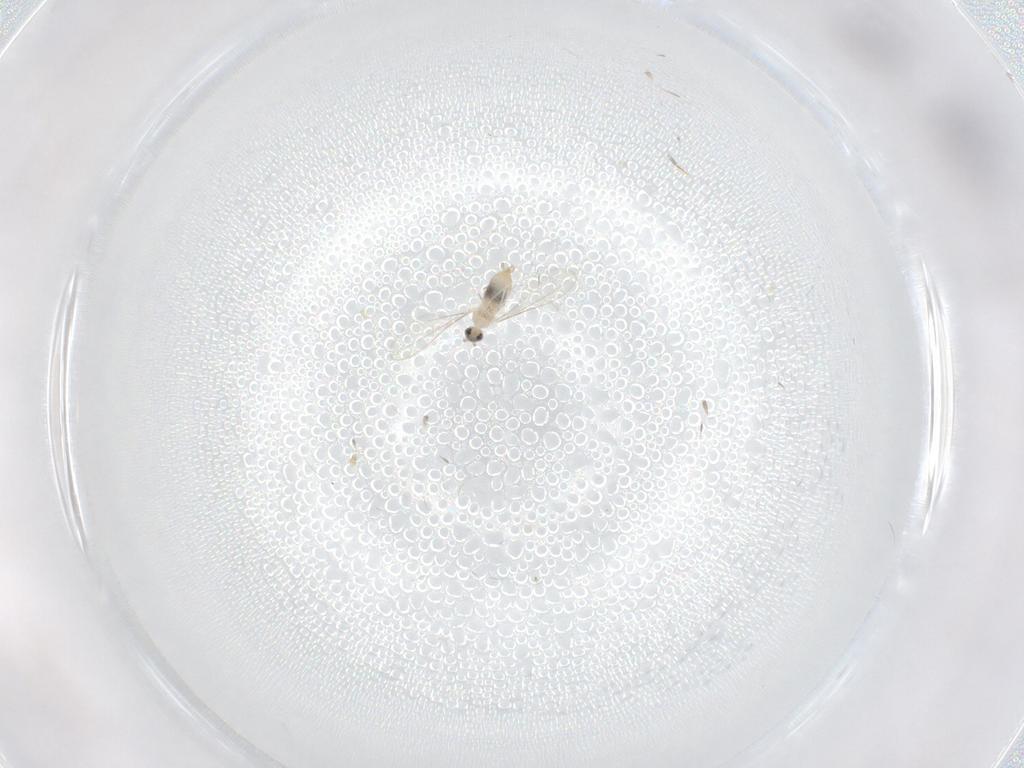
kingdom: Animalia
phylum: Arthropoda
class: Insecta
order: Diptera
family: Cecidomyiidae
